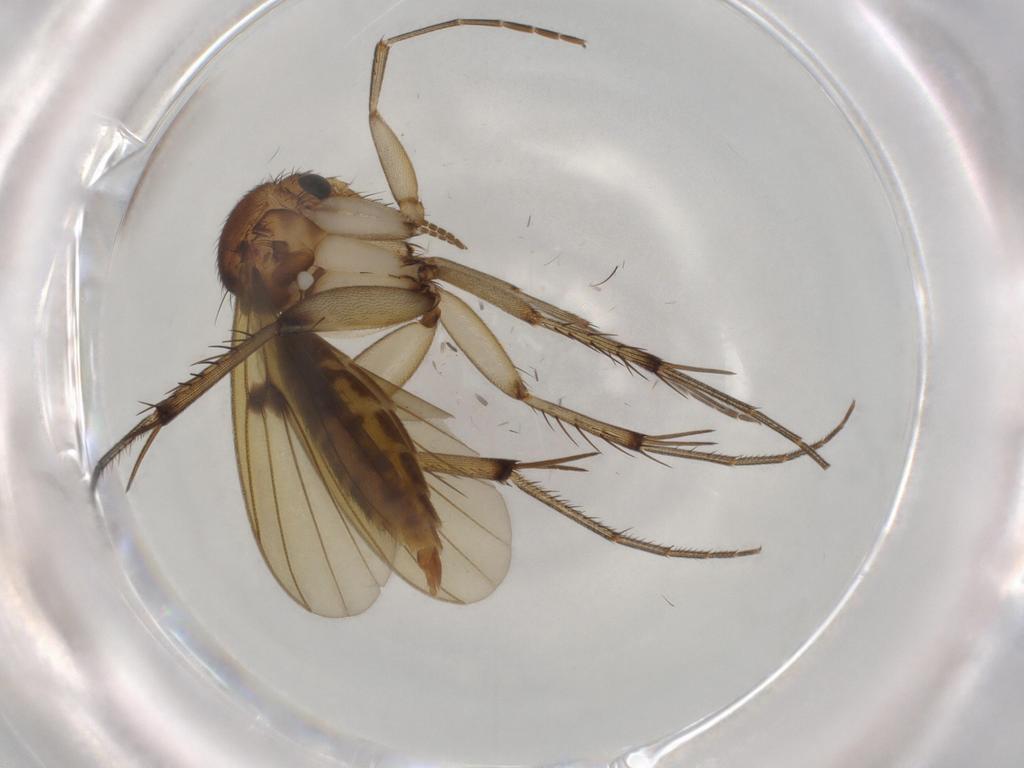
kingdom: Animalia
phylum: Arthropoda
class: Insecta
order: Diptera
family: Mycetophilidae
